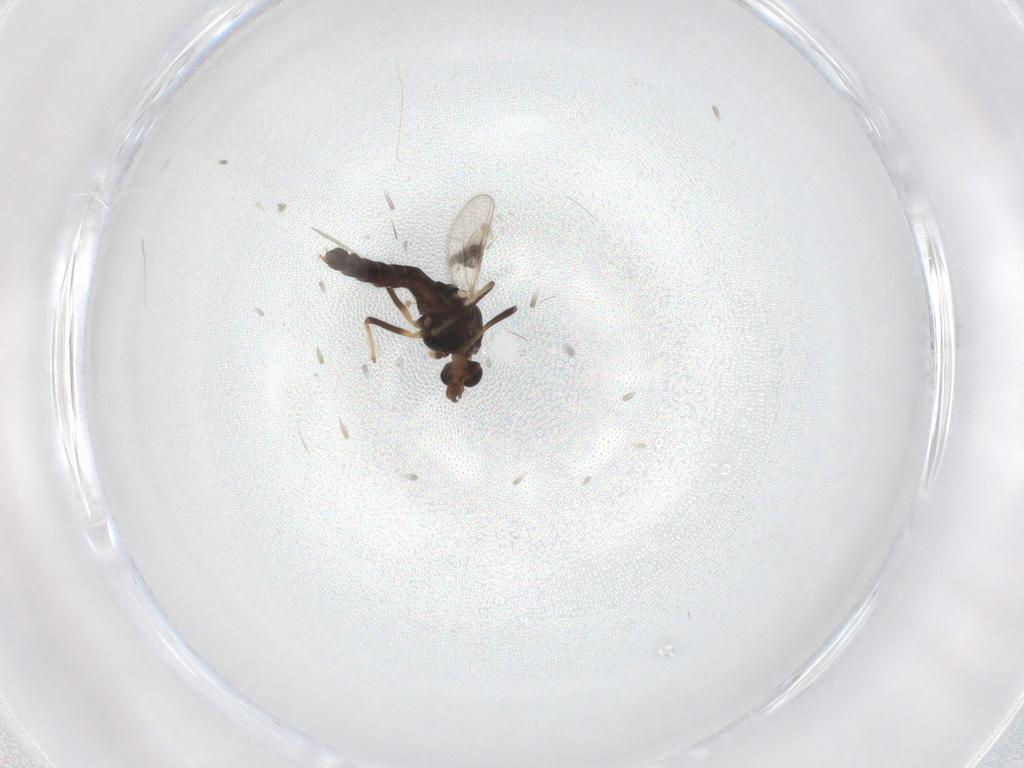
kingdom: Animalia
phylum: Arthropoda
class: Insecta
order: Diptera
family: Chironomidae
